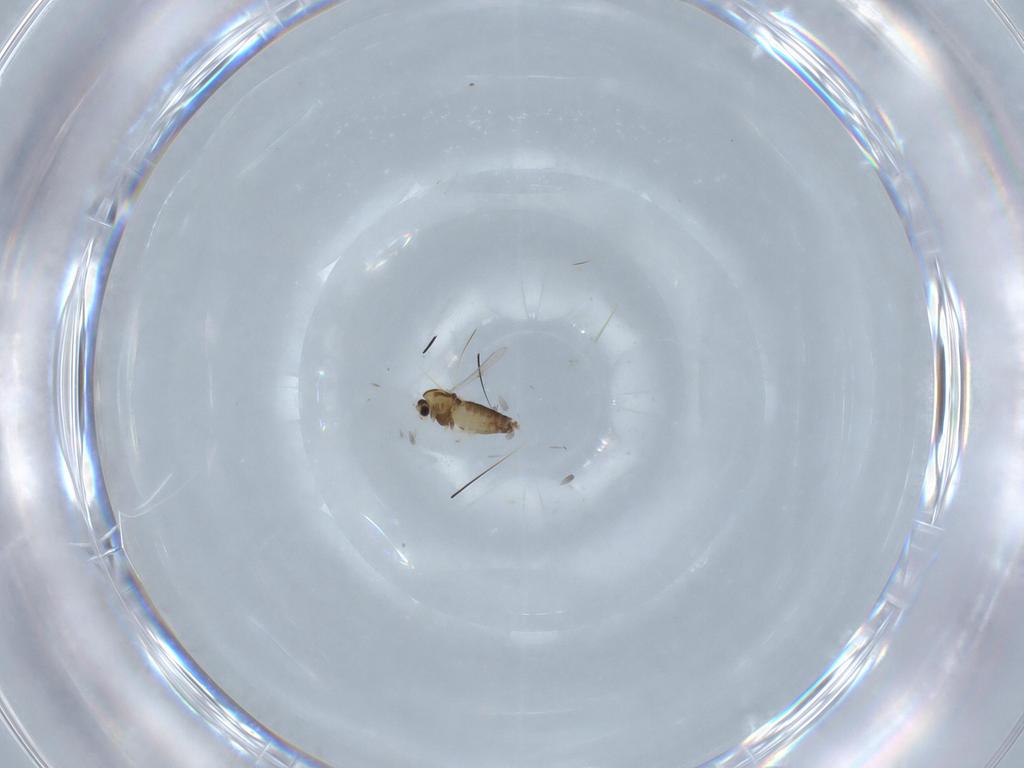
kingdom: Animalia
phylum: Arthropoda
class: Insecta
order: Diptera
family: Chironomidae
